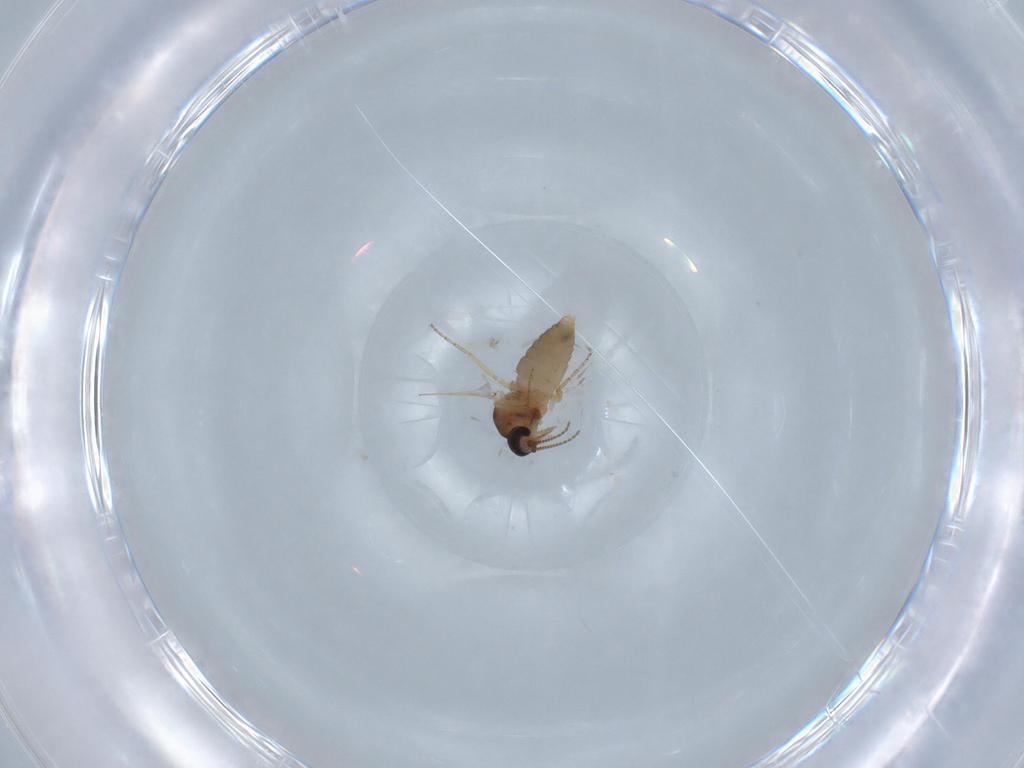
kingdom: Animalia
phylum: Arthropoda
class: Insecta
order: Diptera
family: Ceratopogonidae
